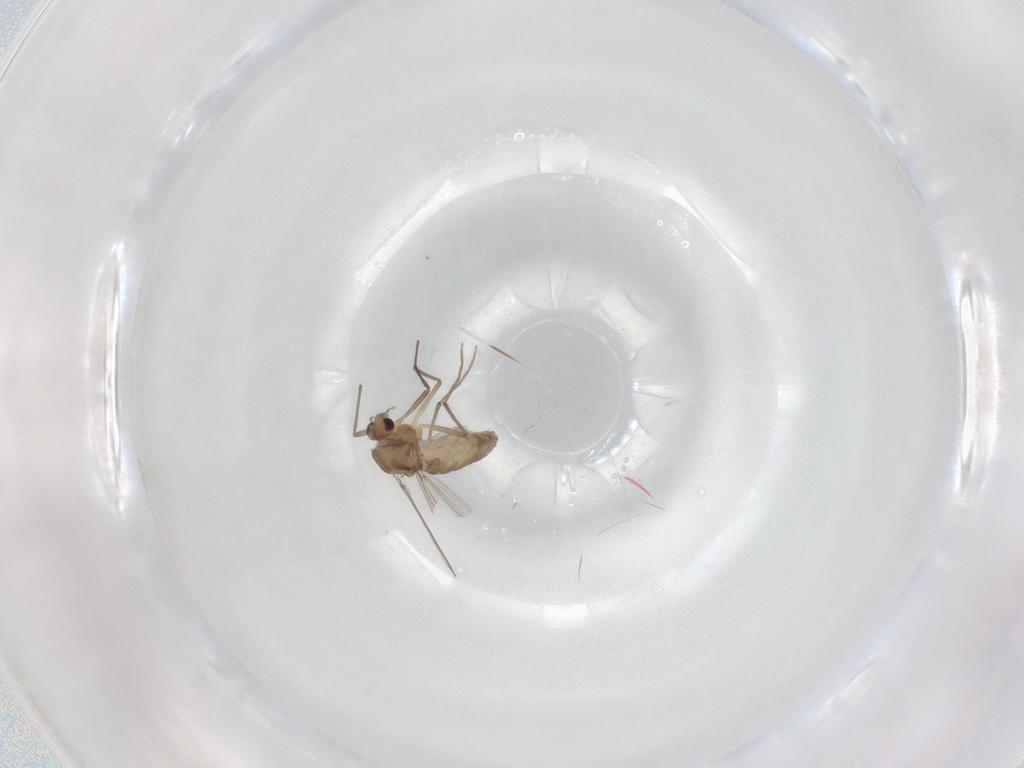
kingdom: Animalia
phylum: Arthropoda
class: Insecta
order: Diptera
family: Chironomidae
